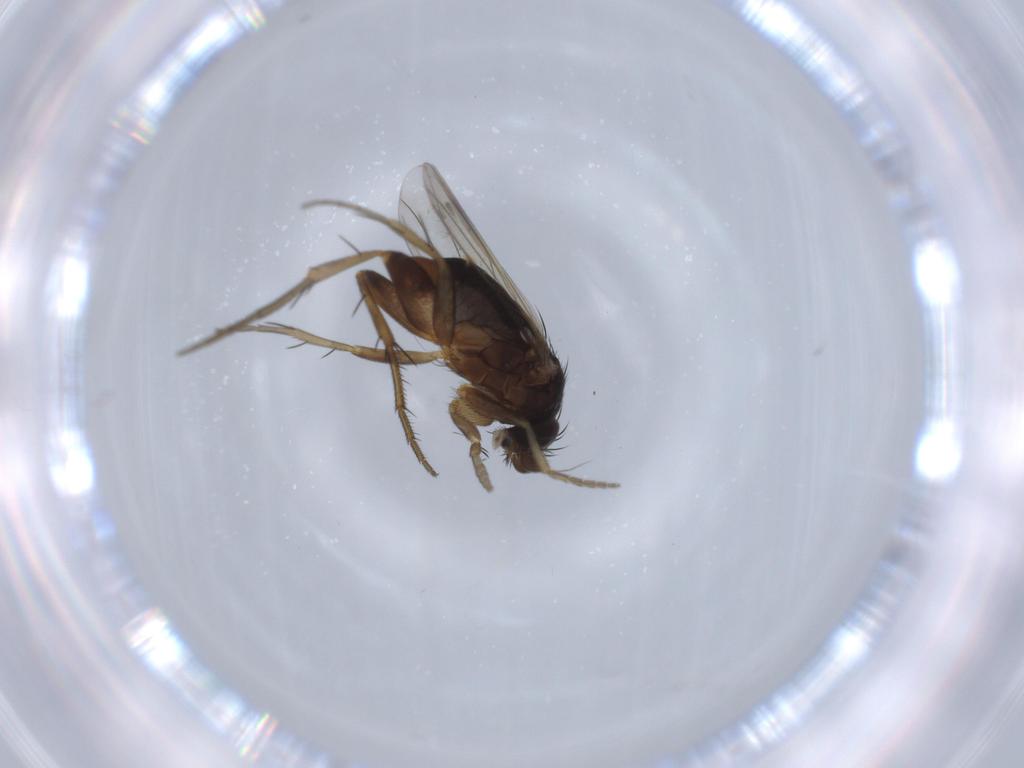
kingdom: Animalia
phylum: Arthropoda
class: Insecta
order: Diptera
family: Phoridae
